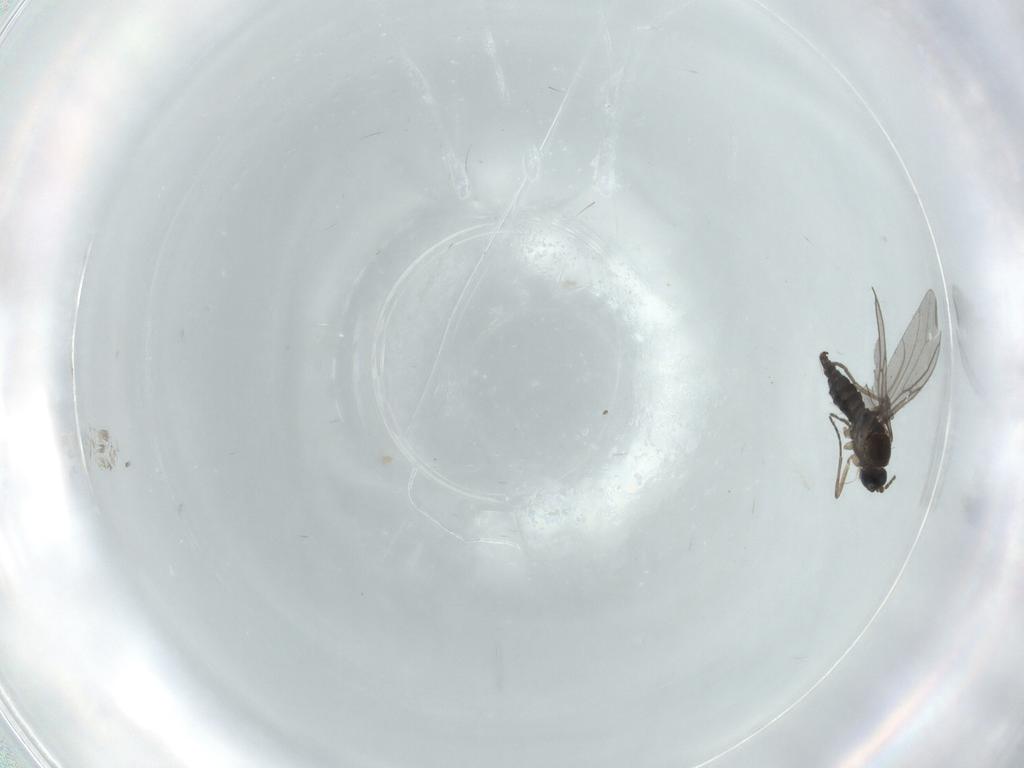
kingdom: Animalia
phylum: Arthropoda
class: Insecta
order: Diptera
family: Sciaridae
